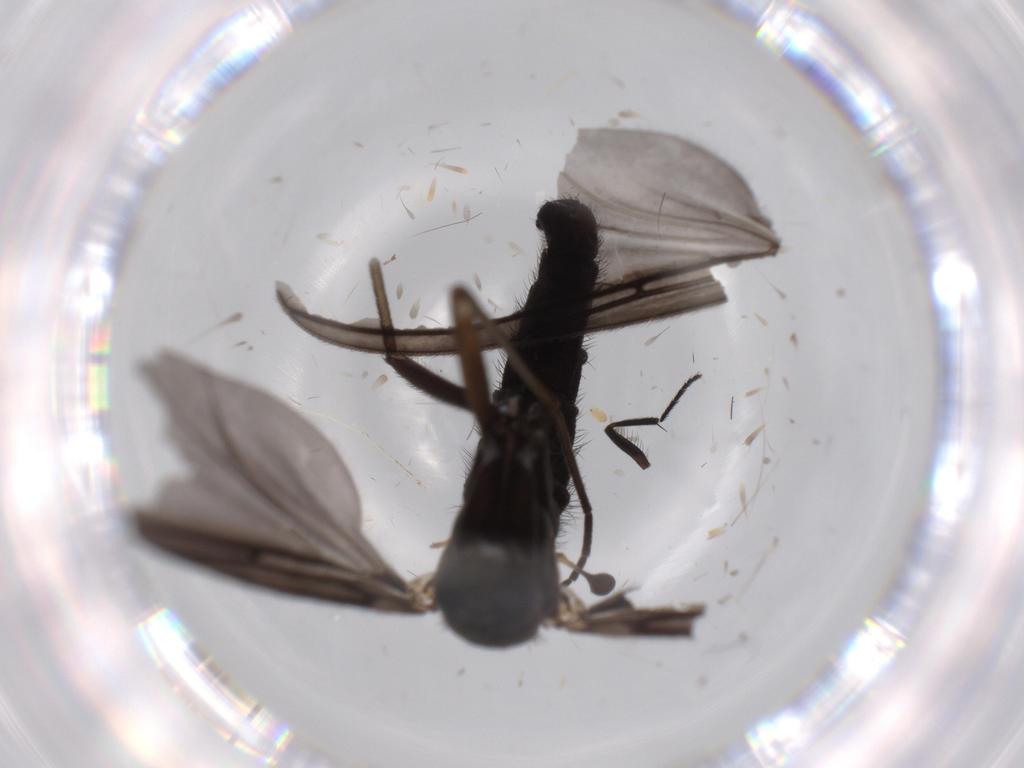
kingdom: Animalia
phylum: Arthropoda
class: Insecta
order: Diptera
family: Sciaridae
